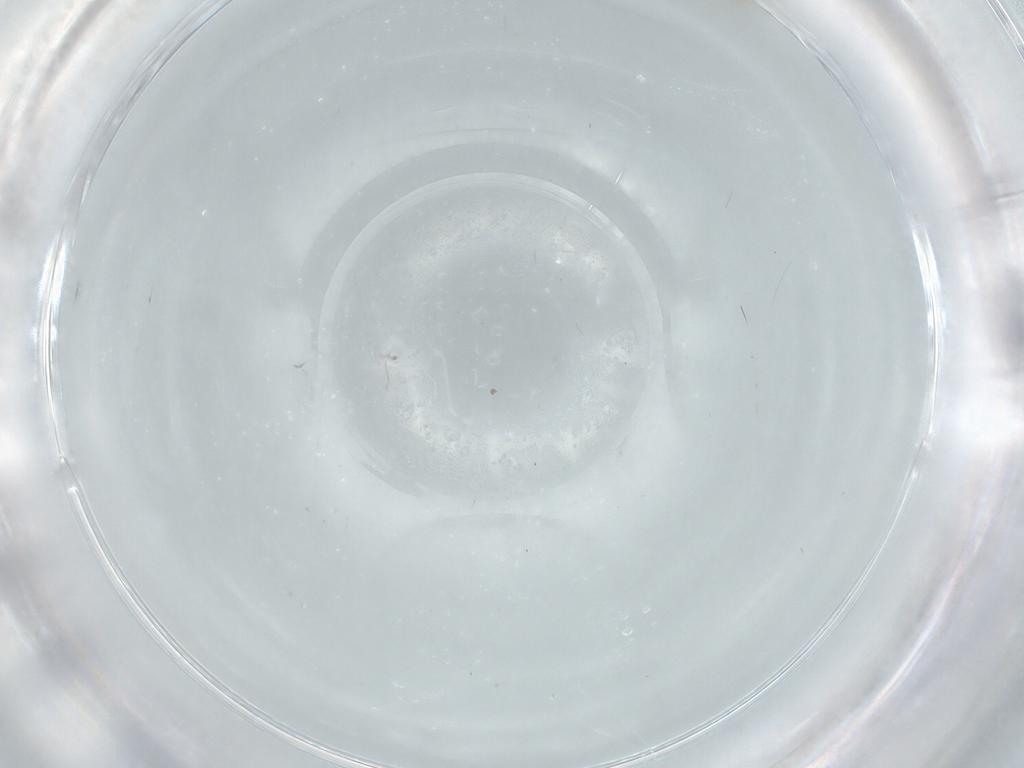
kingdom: Animalia
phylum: Arthropoda
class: Insecta
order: Diptera
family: Cecidomyiidae
